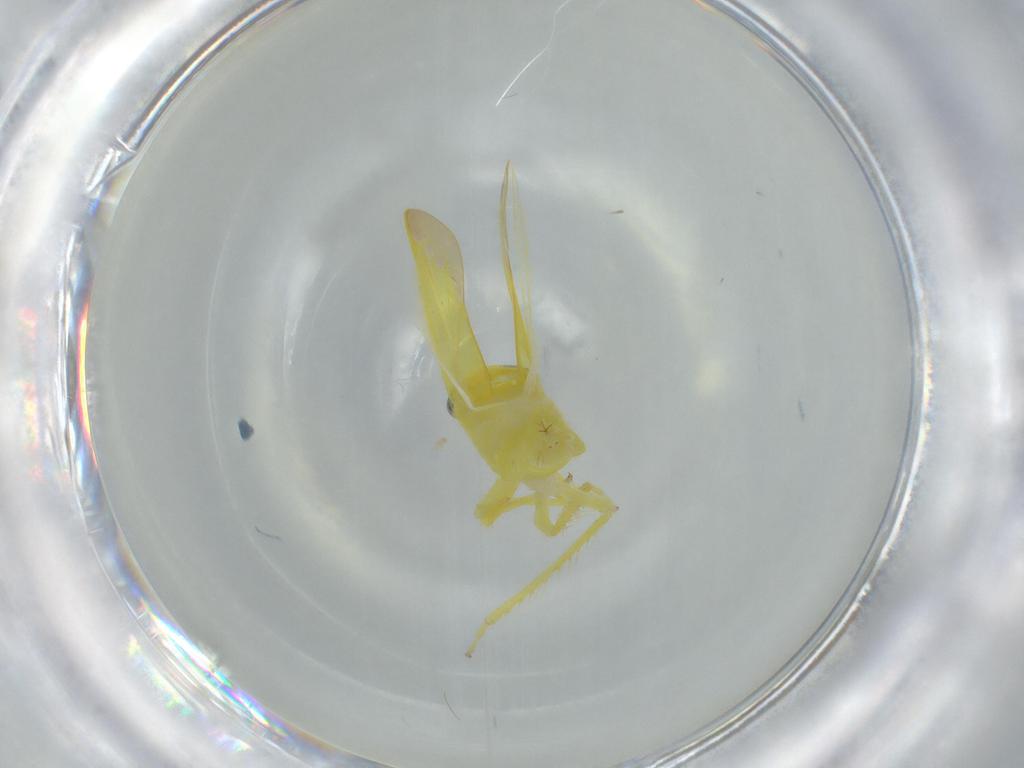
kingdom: Animalia
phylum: Arthropoda
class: Insecta
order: Hemiptera
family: Cicadellidae
